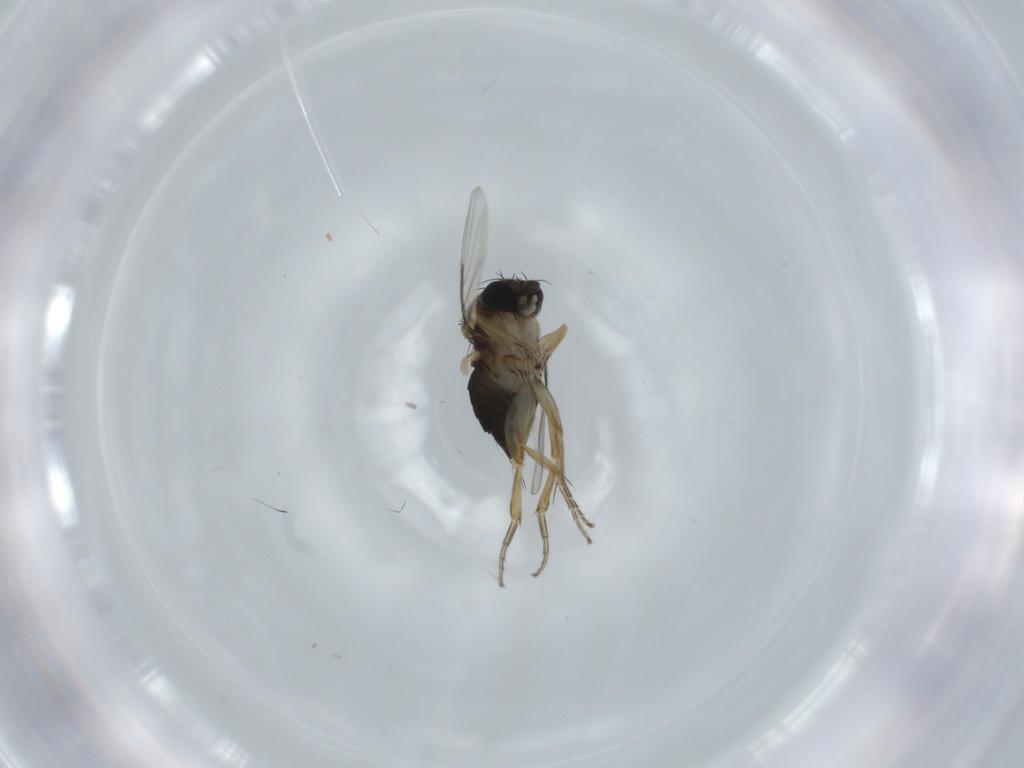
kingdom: Animalia
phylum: Arthropoda
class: Insecta
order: Diptera
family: Phoridae
